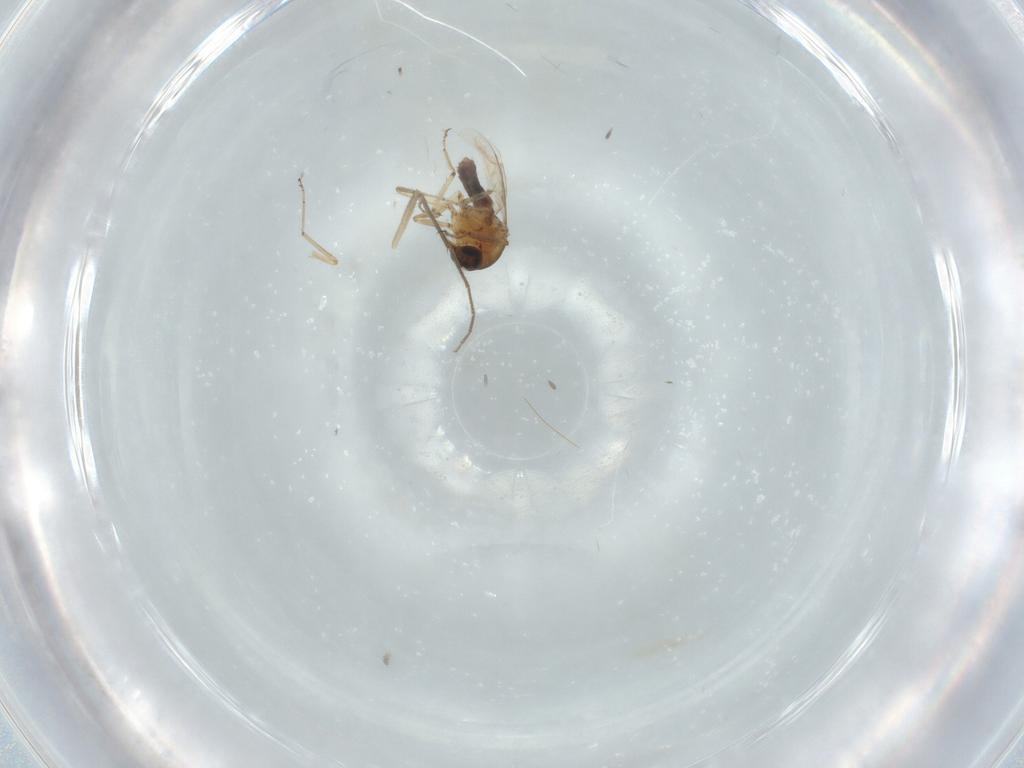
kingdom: Animalia
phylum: Arthropoda
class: Insecta
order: Diptera
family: Ceratopogonidae
